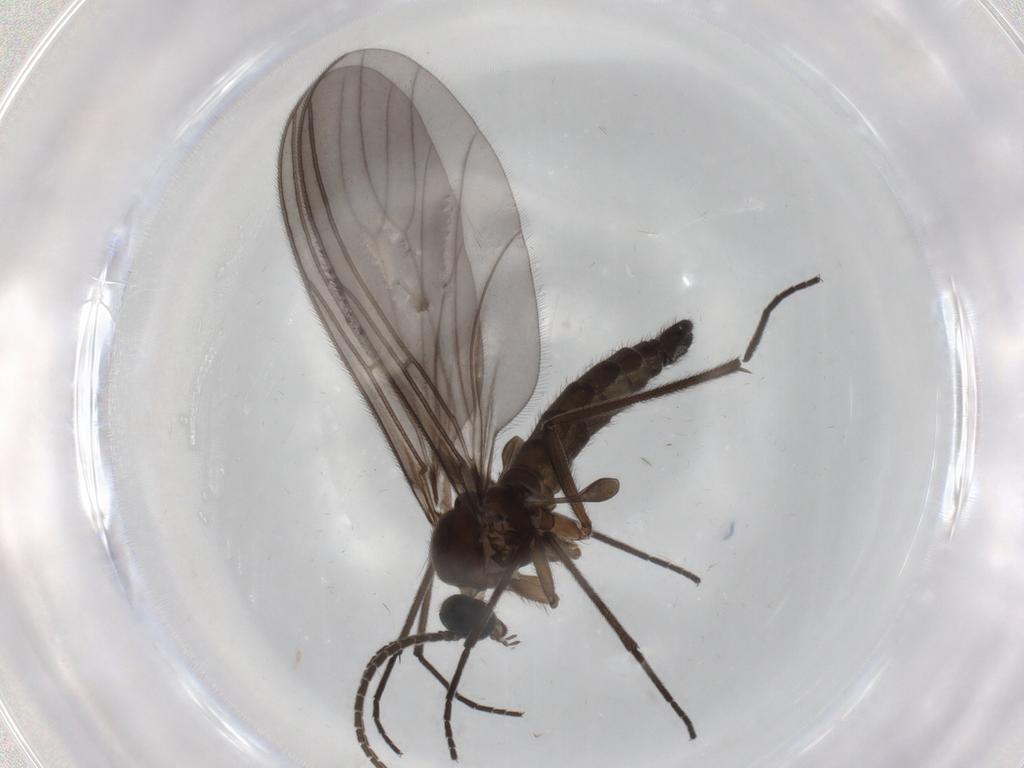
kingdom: Animalia
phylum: Arthropoda
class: Insecta
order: Diptera
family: Sciaridae
